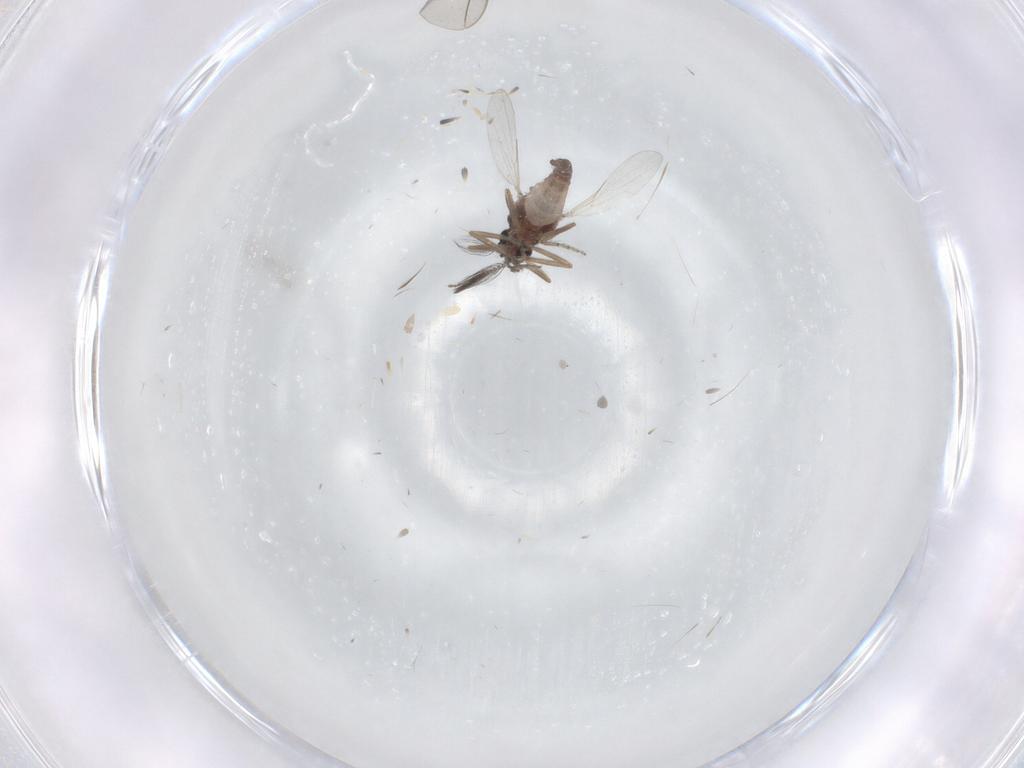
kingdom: Animalia
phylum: Arthropoda
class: Insecta
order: Diptera
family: Ceratopogonidae
